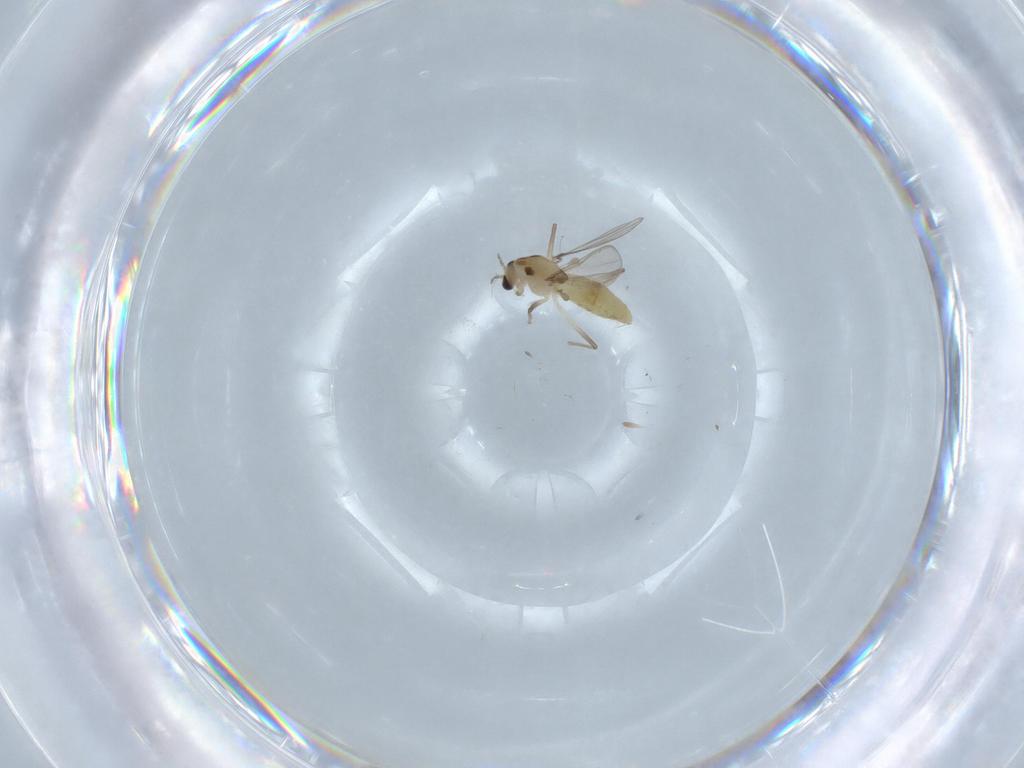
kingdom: Animalia
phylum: Arthropoda
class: Insecta
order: Diptera
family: Chironomidae
